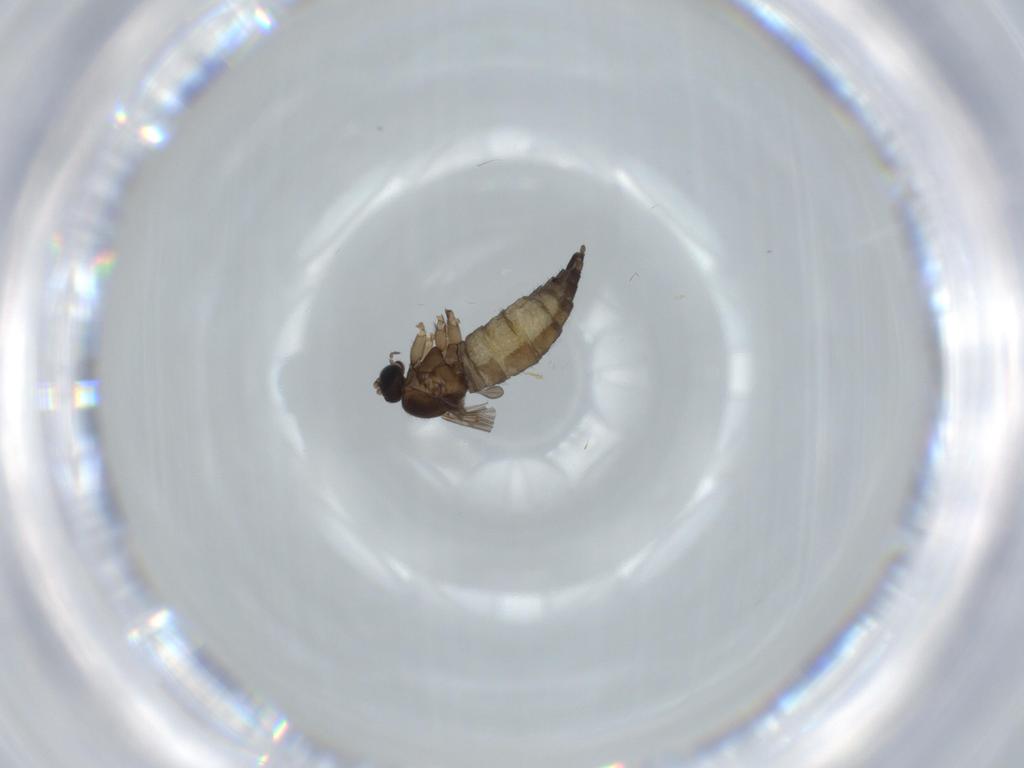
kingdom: Animalia
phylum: Arthropoda
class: Insecta
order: Diptera
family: Sciaridae
